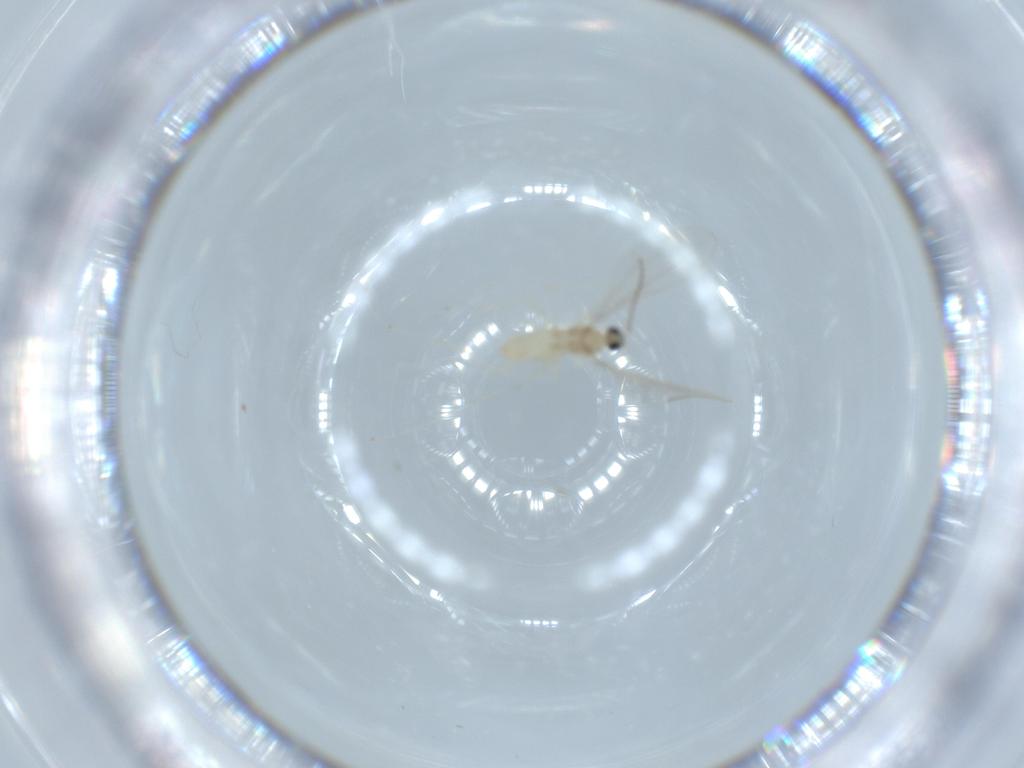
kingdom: Animalia
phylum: Arthropoda
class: Insecta
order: Diptera
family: Cecidomyiidae
